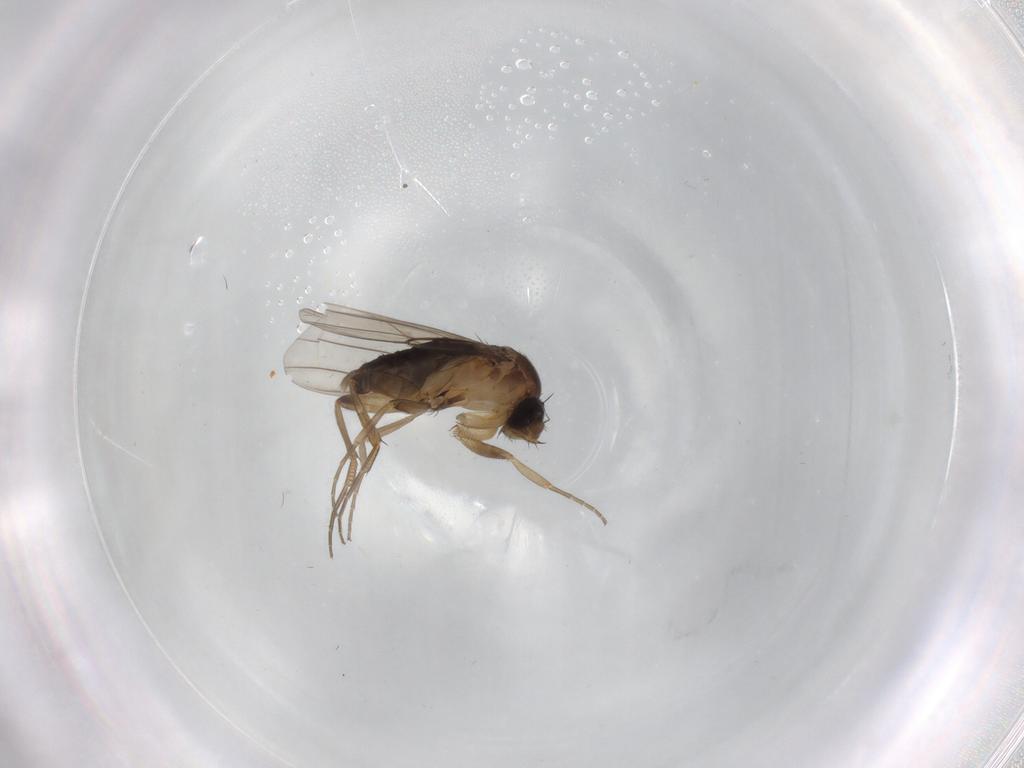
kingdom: Animalia
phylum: Arthropoda
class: Insecta
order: Diptera
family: Phoridae
